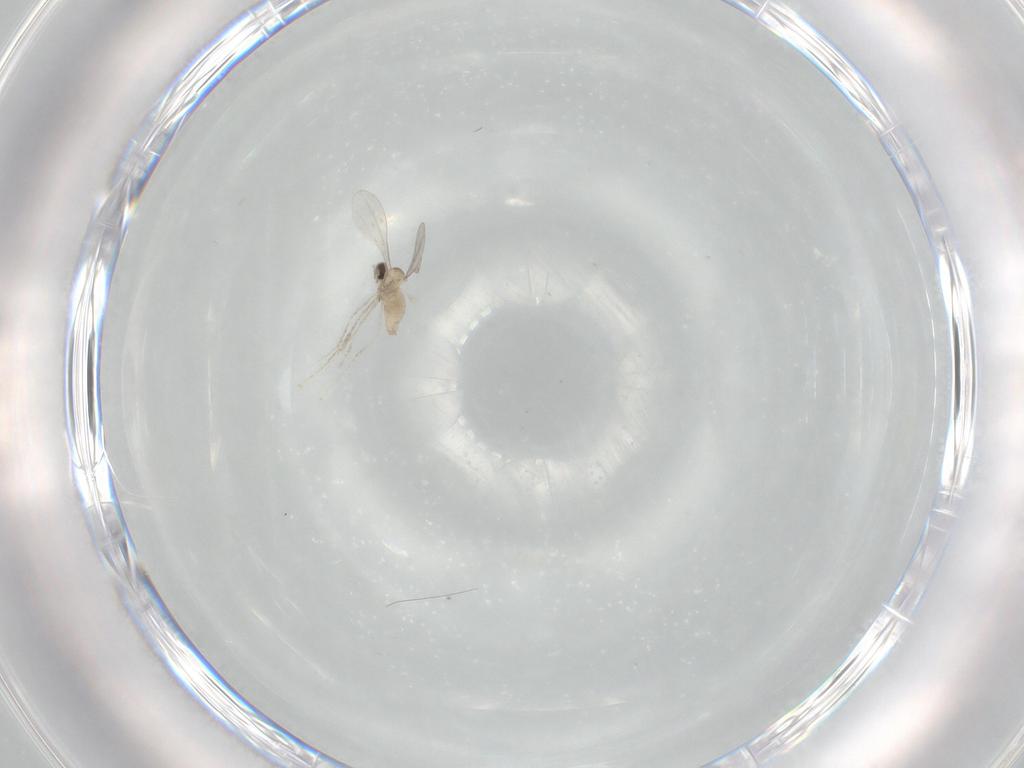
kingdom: Animalia
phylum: Arthropoda
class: Insecta
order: Diptera
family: Cecidomyiidae
